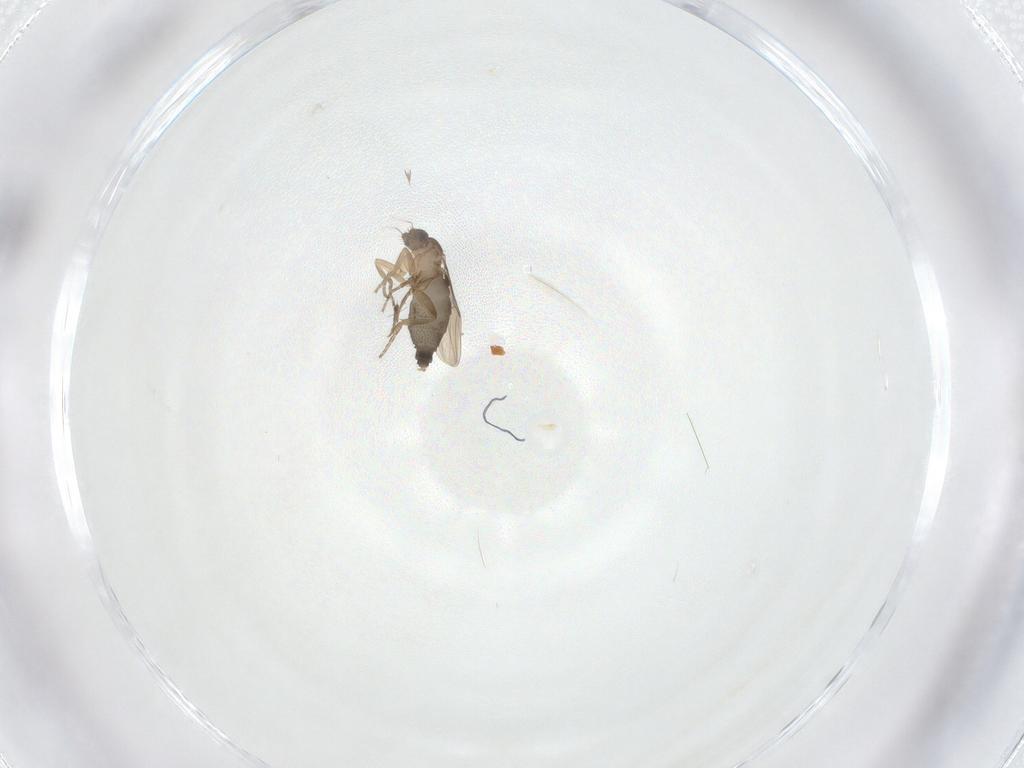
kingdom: Animalia
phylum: Arthropoda
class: Insecta
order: Diptera
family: Phoridae
